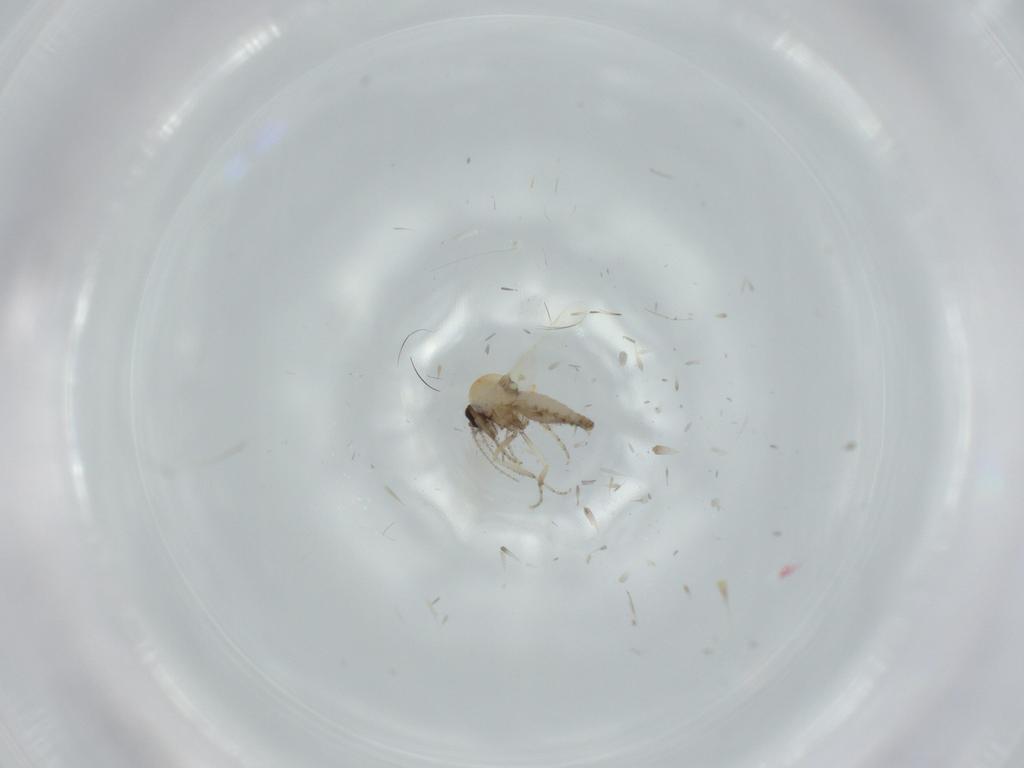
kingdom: Animalia
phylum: Arthropoda
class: Insecta
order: Diptera
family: Ceratopogonidae
